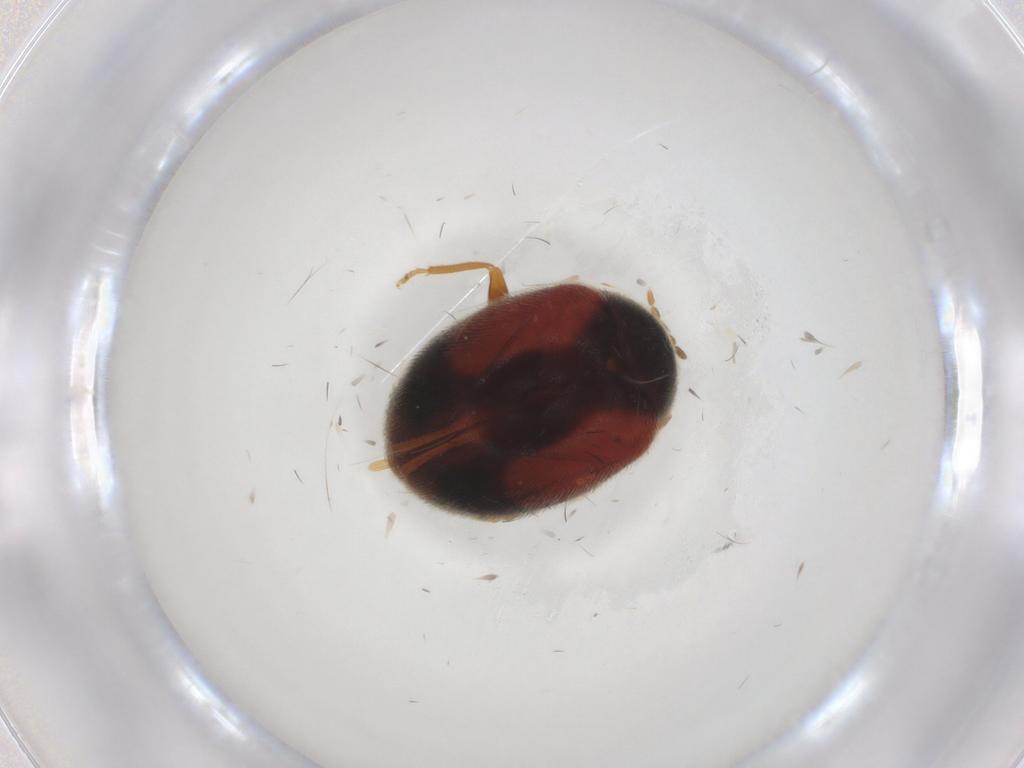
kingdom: Animalia
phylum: Arthropoda
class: Insecta
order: Coleoptera
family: Scirtidae
